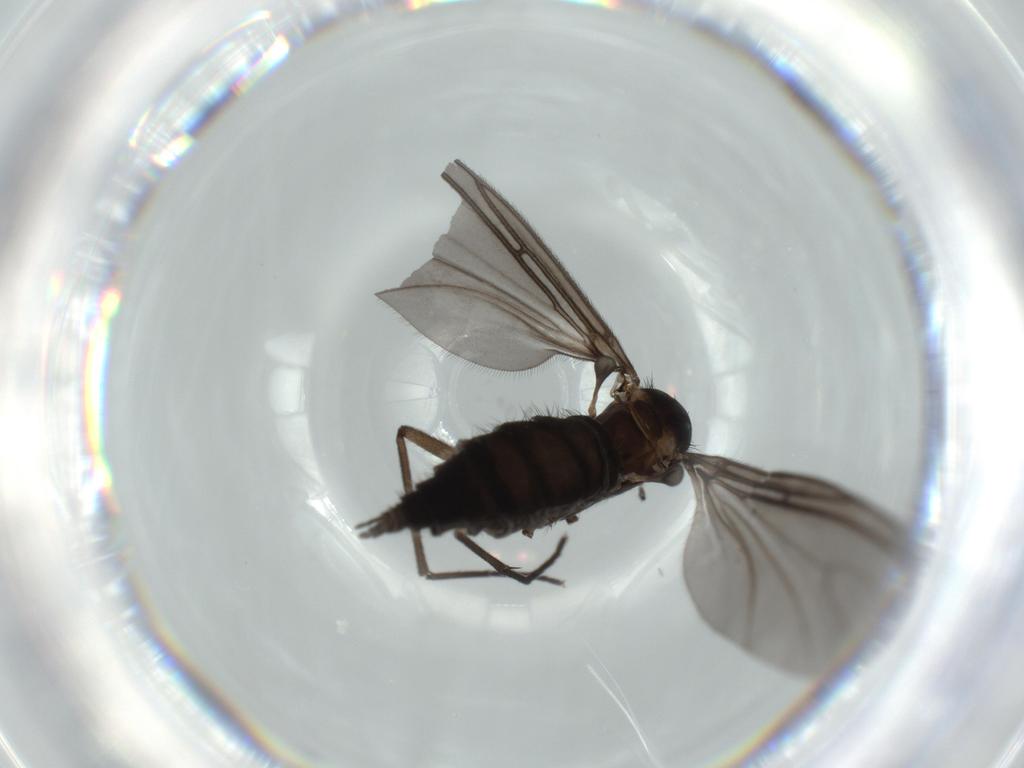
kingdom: Animalia
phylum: Arthropoda
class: Insecta
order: Diptera
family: Sciaridae
